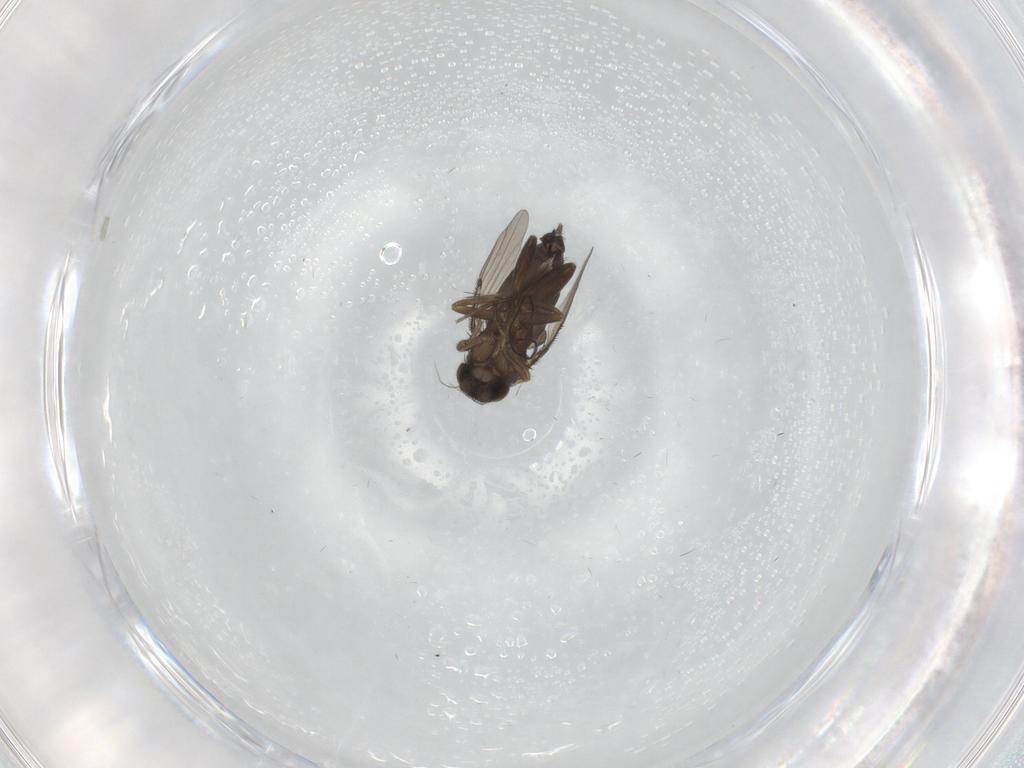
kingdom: Animalia
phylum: Arthropoda
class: Insecta
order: Diptera
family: Phoridae
